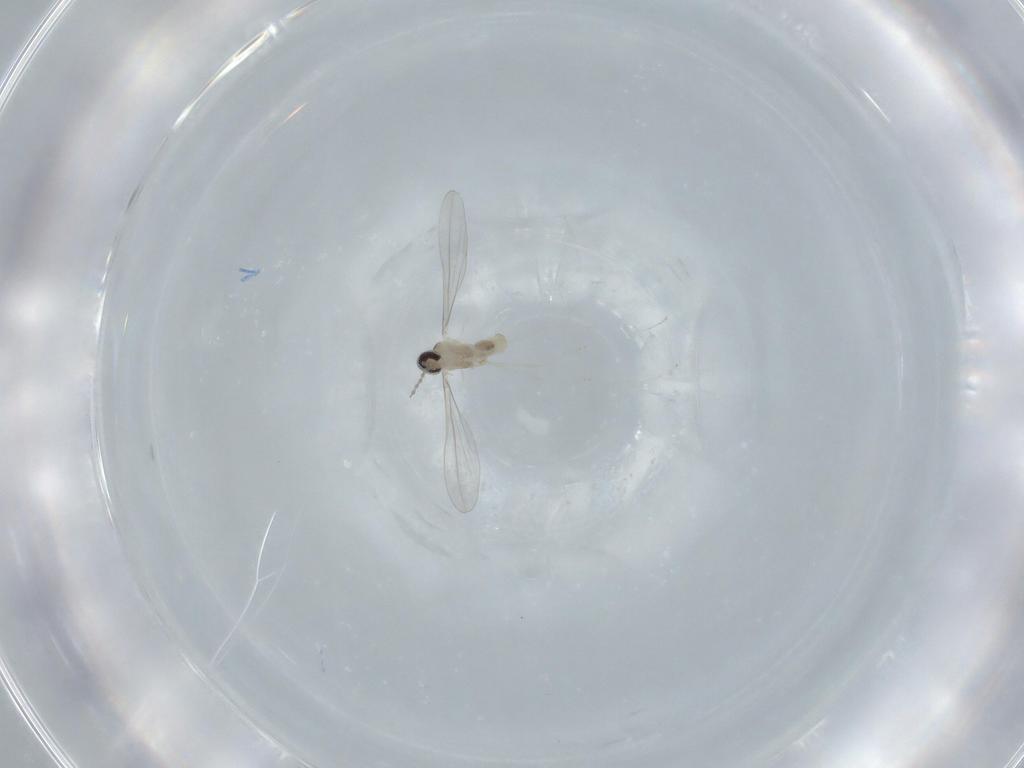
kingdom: Animalia
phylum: Arthropoda
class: Insecta
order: Diptera
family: Cecidomyiidae
